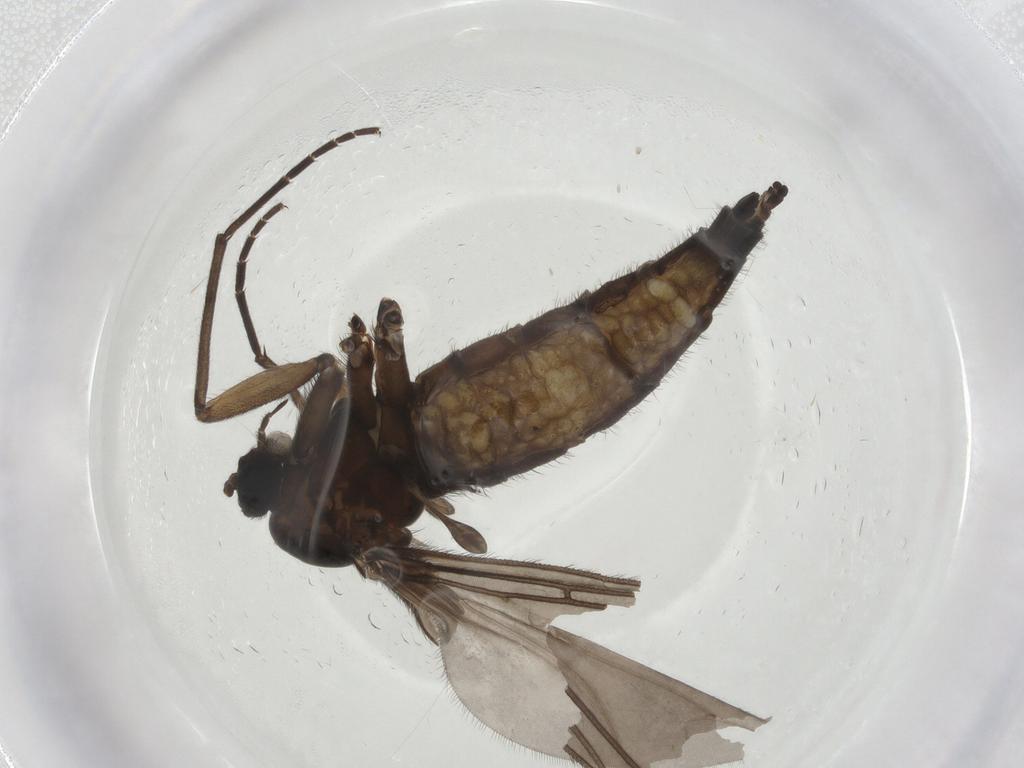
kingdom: Animalia
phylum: Arthropoda
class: Insecta
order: Diptera
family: Sciaridae
